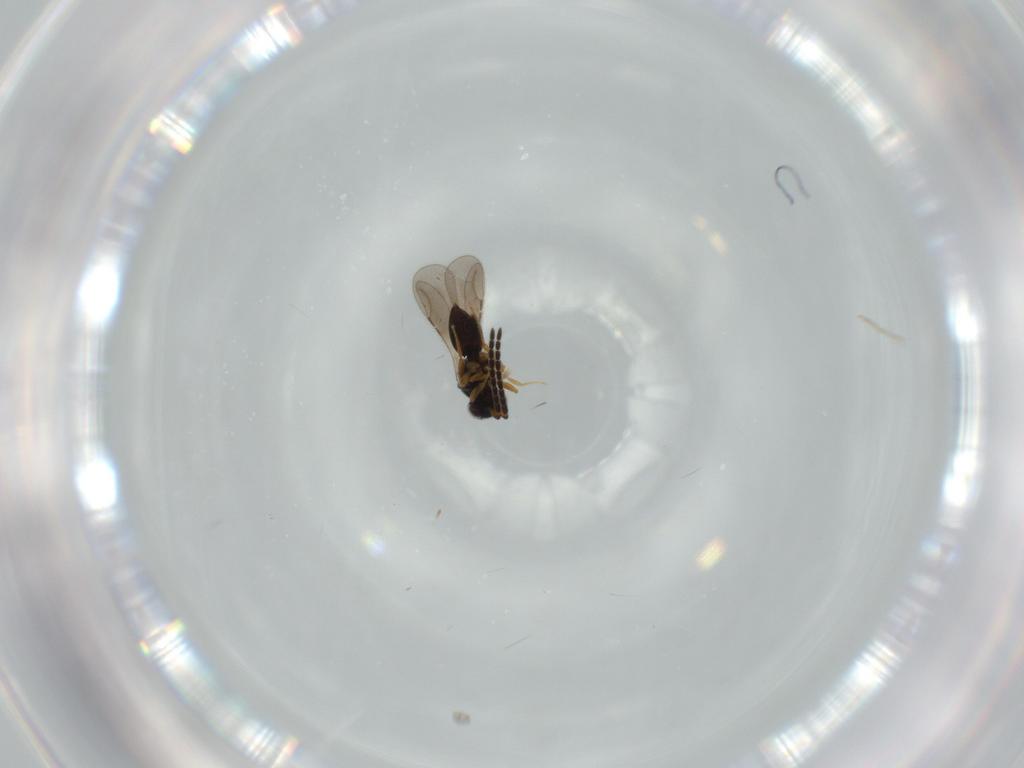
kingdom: Animalia
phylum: Arthropoda
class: Insecta
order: Hymenoptera
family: Ceraphronidae
